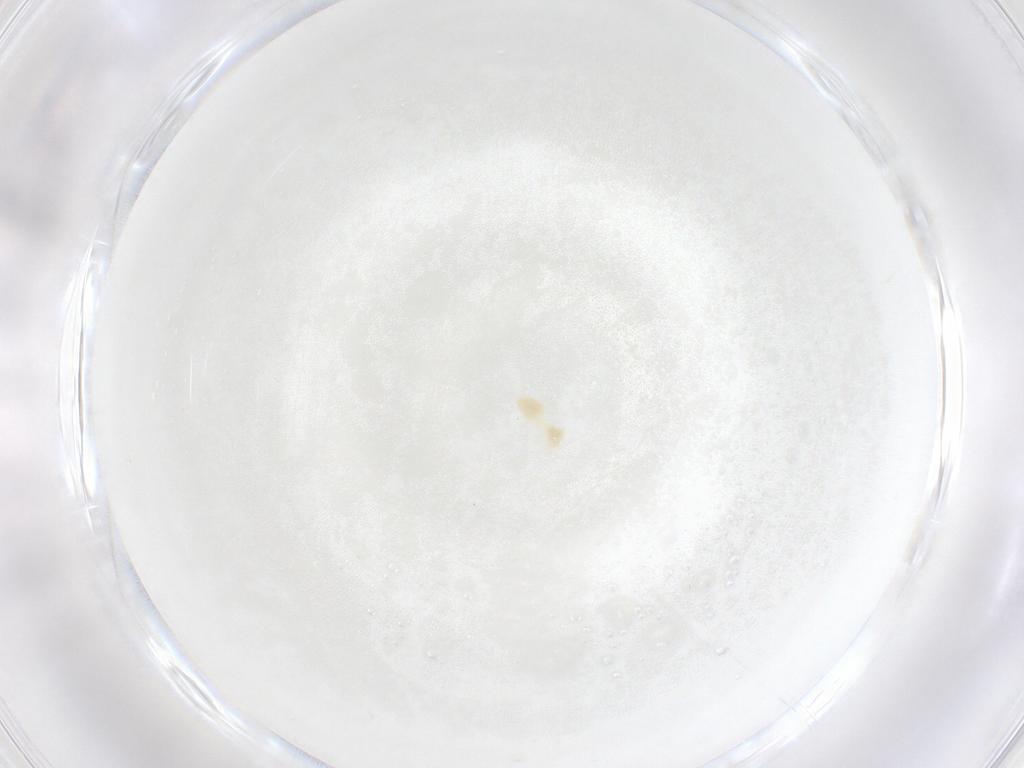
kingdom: Animalia
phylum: Arthropoda
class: Arachnida
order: Trombidiformes
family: Eupodidae
